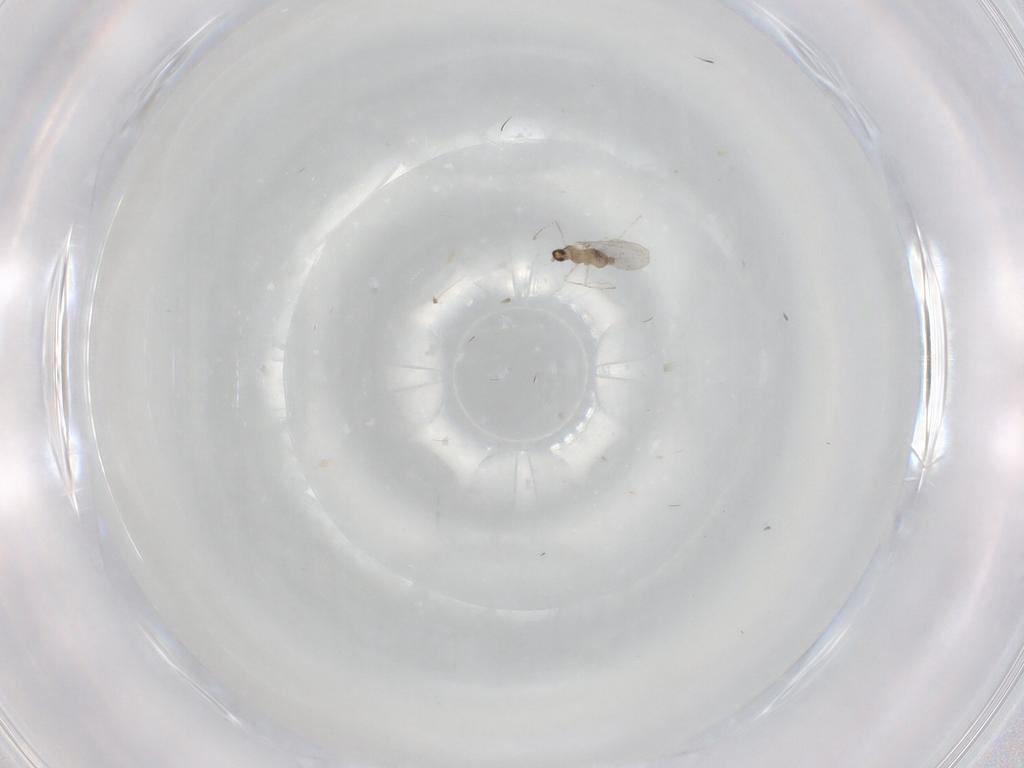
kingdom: Animalia
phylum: Arthropoda
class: Insecta
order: Diptera
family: Cecidomyiidae
